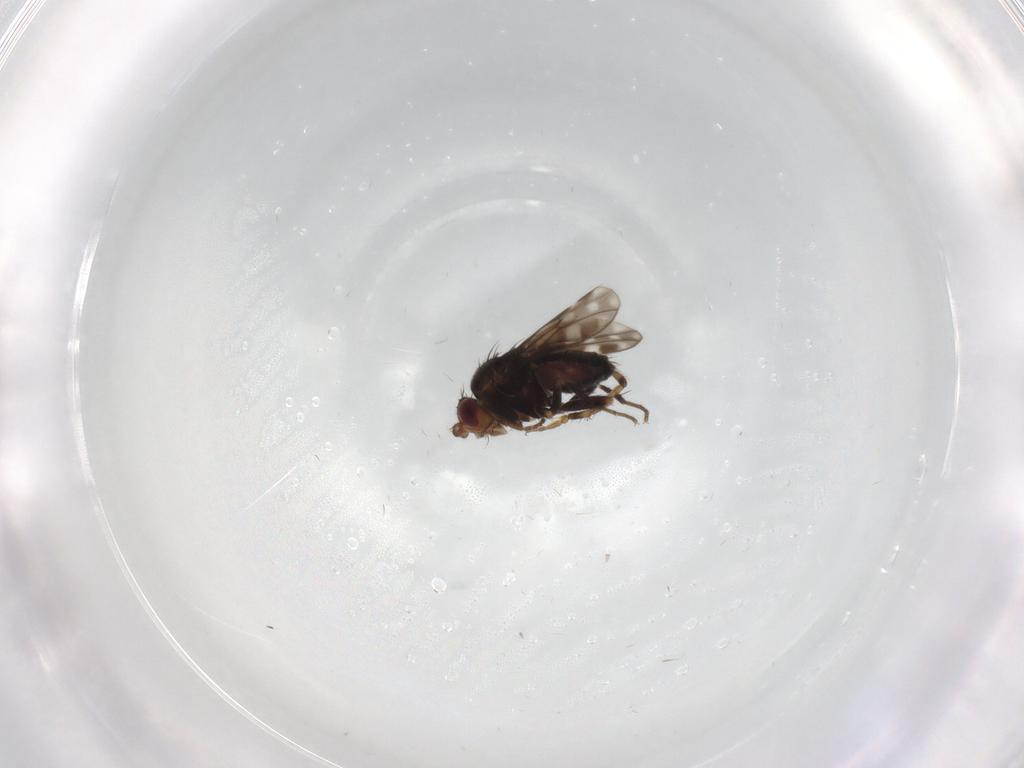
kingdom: Animalia
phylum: Arthropoda
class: Insecta
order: Diptera
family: Sphaeroceridae
